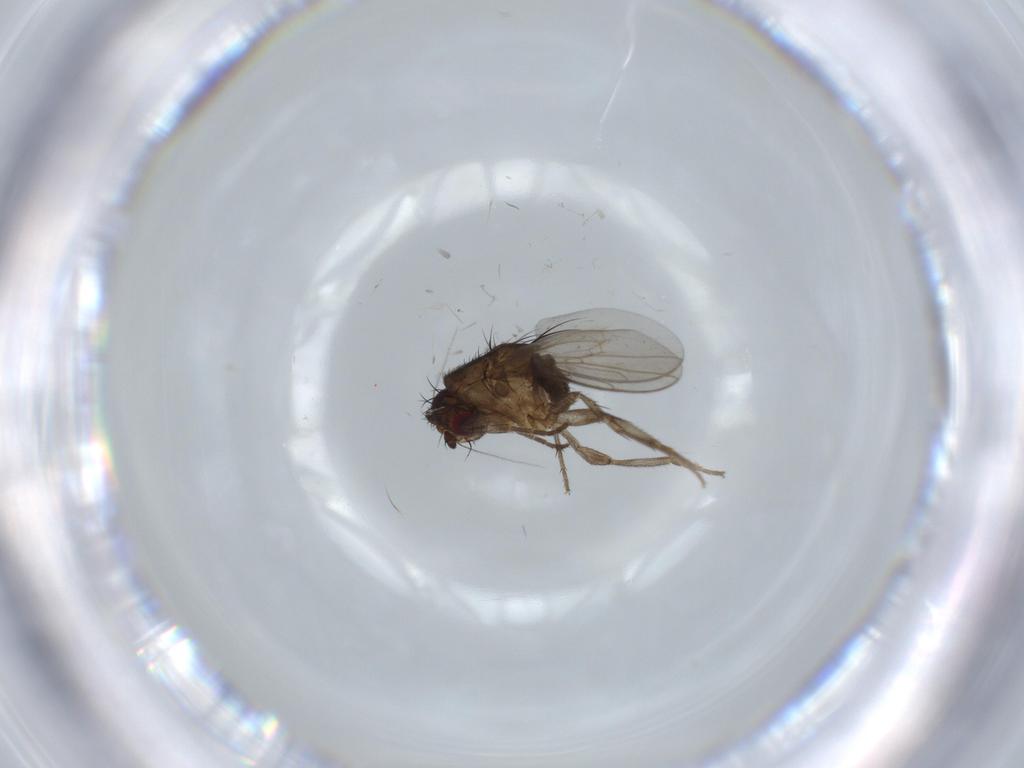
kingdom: Animalia
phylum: Arthropoda
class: Insecta
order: Diptera
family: Sphaeroceridae
